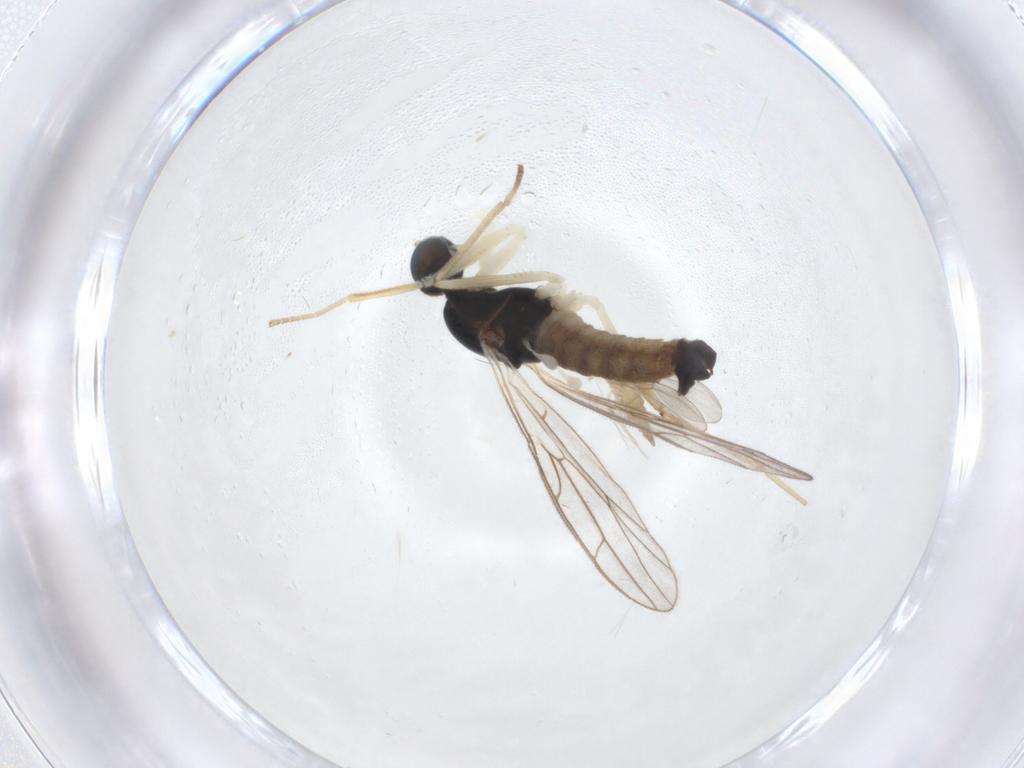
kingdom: Animalia
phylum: Arthropoda
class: Insecta
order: Diptera
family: Empididae
